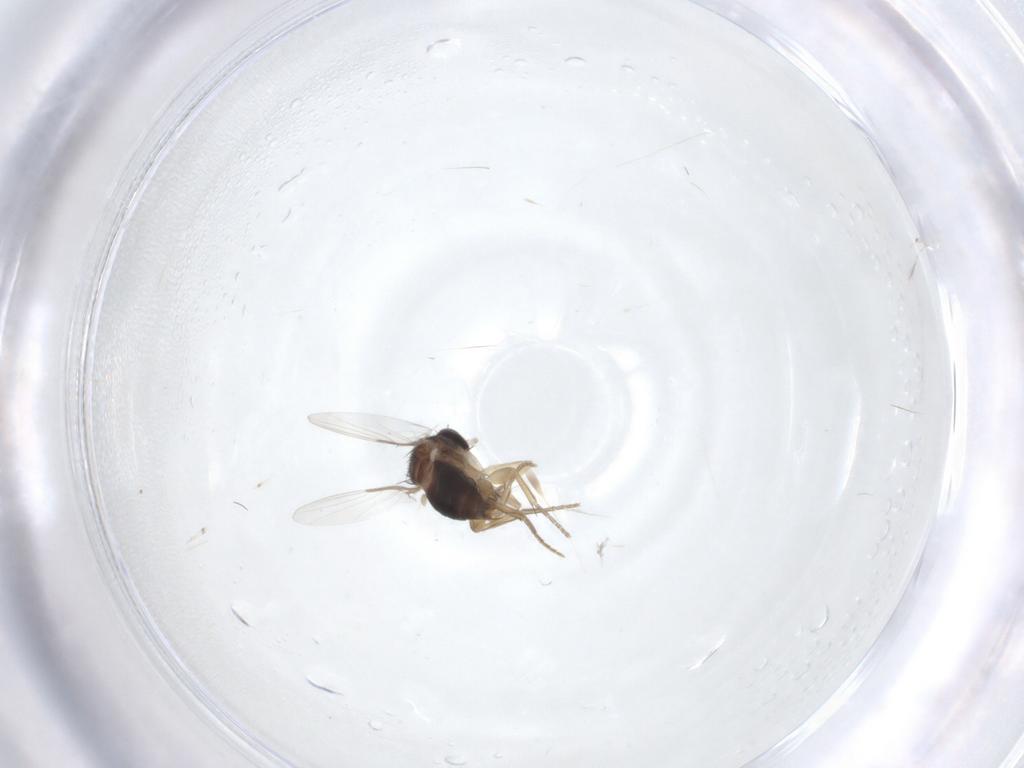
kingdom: Animalia
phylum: Arthropoda
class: Insecta
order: Diptera
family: Phoridae
